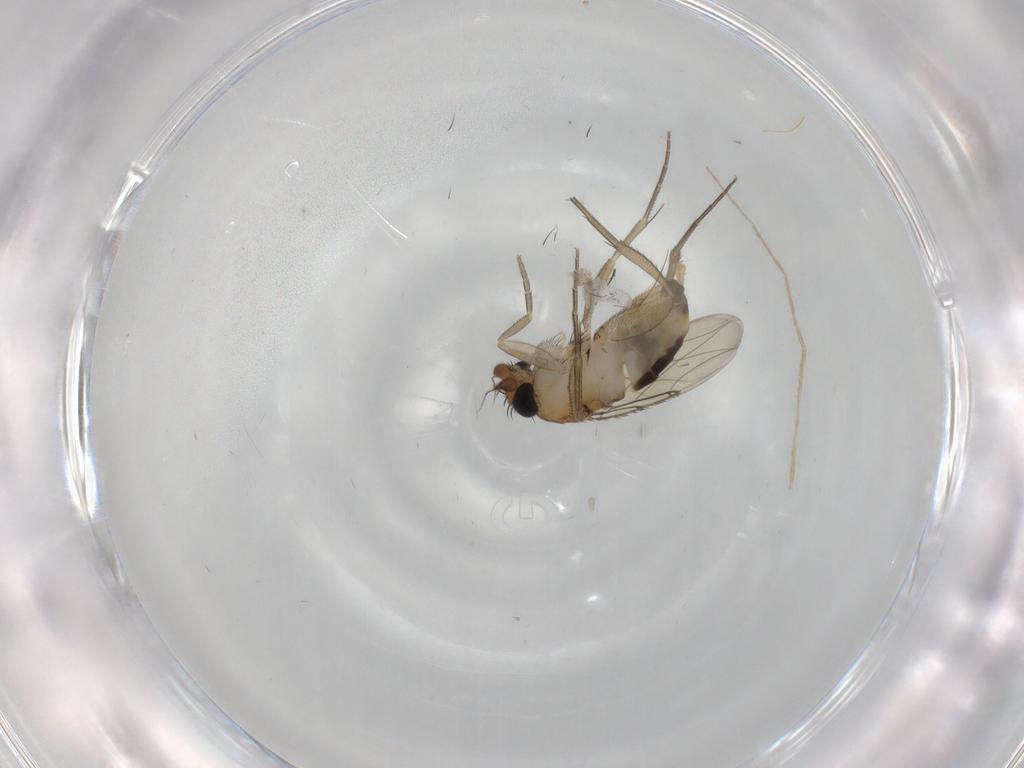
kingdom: Animalia
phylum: Arthropoda
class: Insecta
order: Diptera
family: Chironomidae
